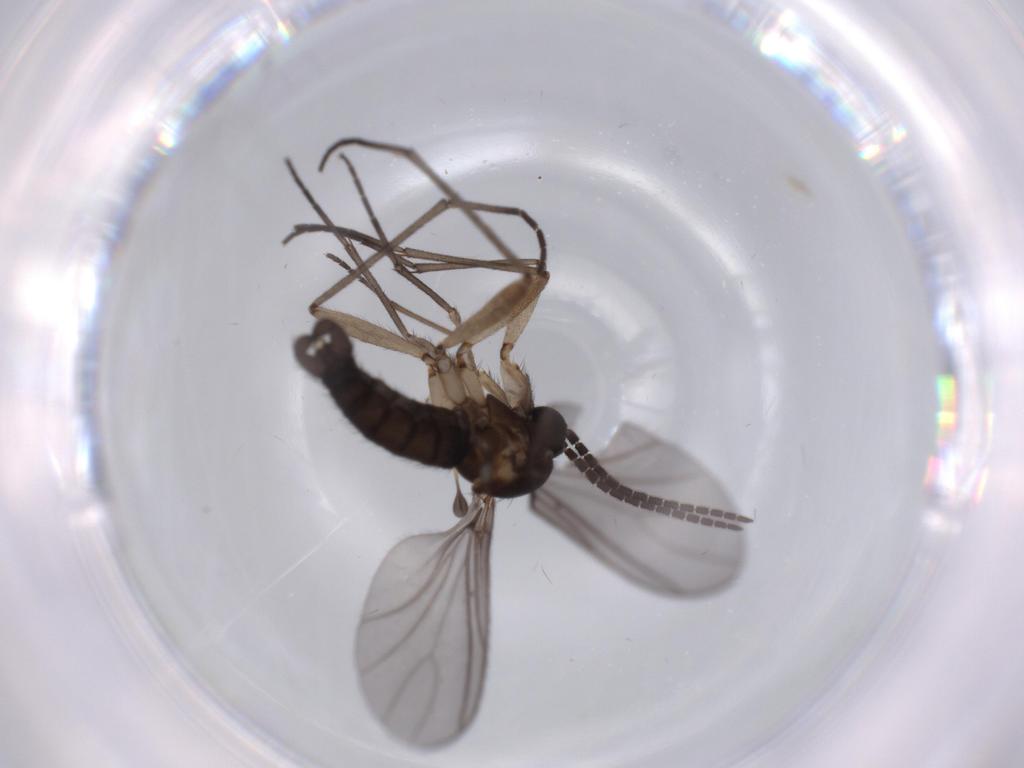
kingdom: Animalia
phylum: Arthropoda
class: Insecta
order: Diptera
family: Sciaridae
